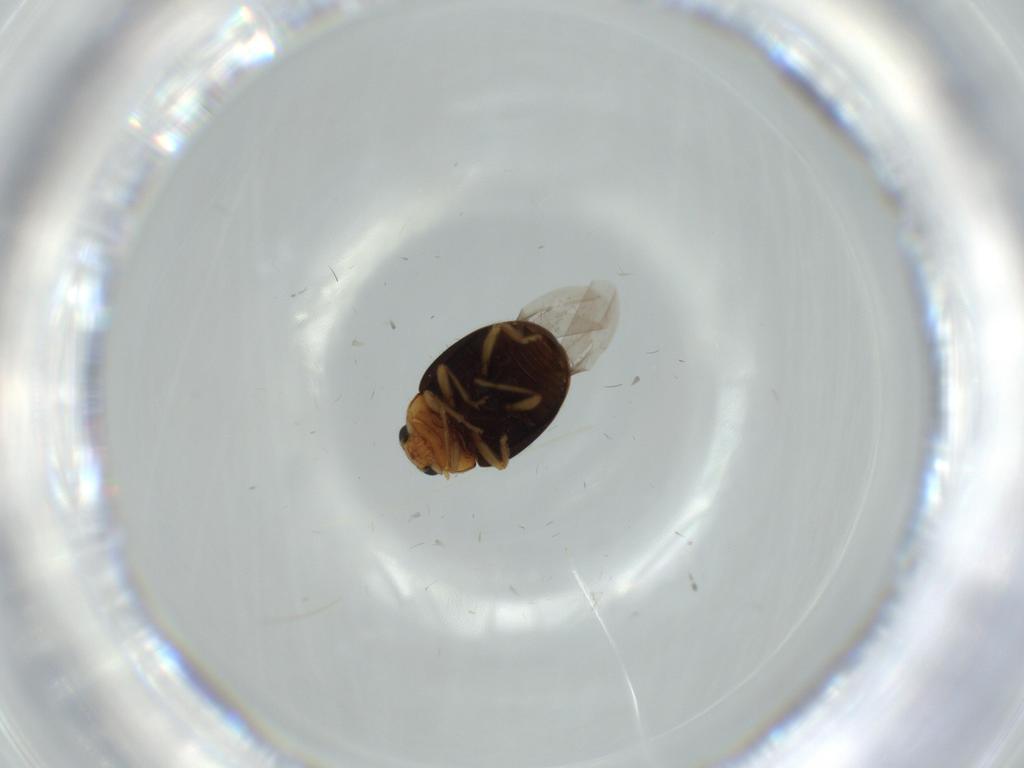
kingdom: Animalia
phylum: Arthropoda
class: Insecta
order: Coleoptera
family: Coccinellidae
